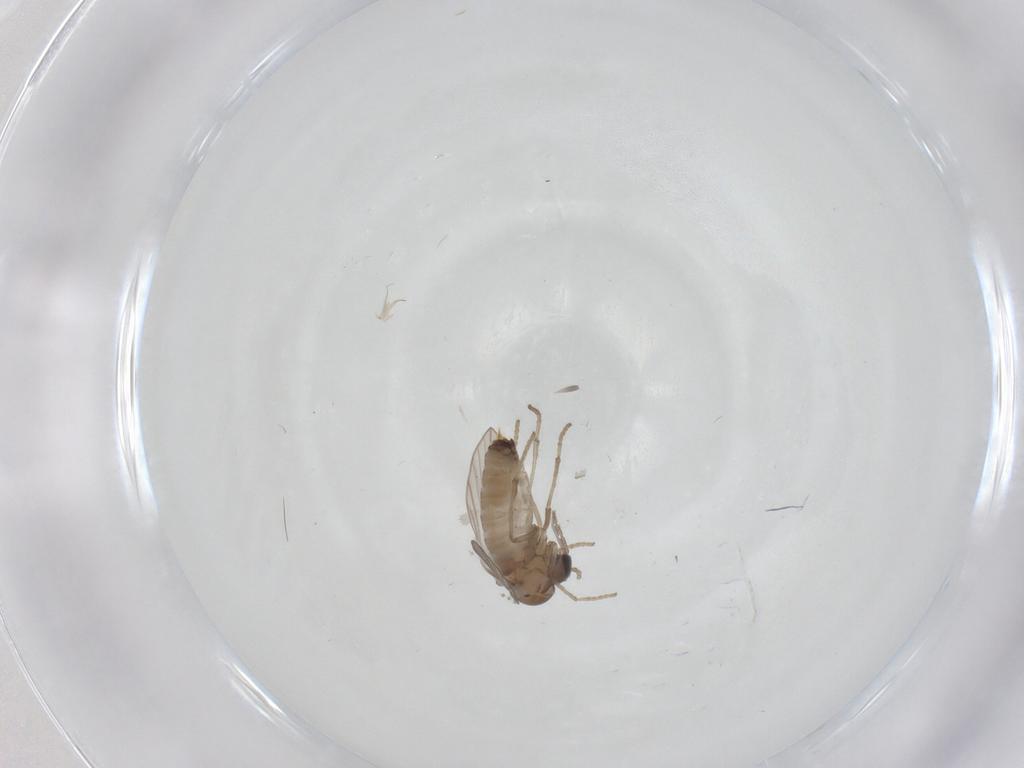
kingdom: Animalia
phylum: Arthropoda
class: Insecta
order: Diptera
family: Psychodidae
